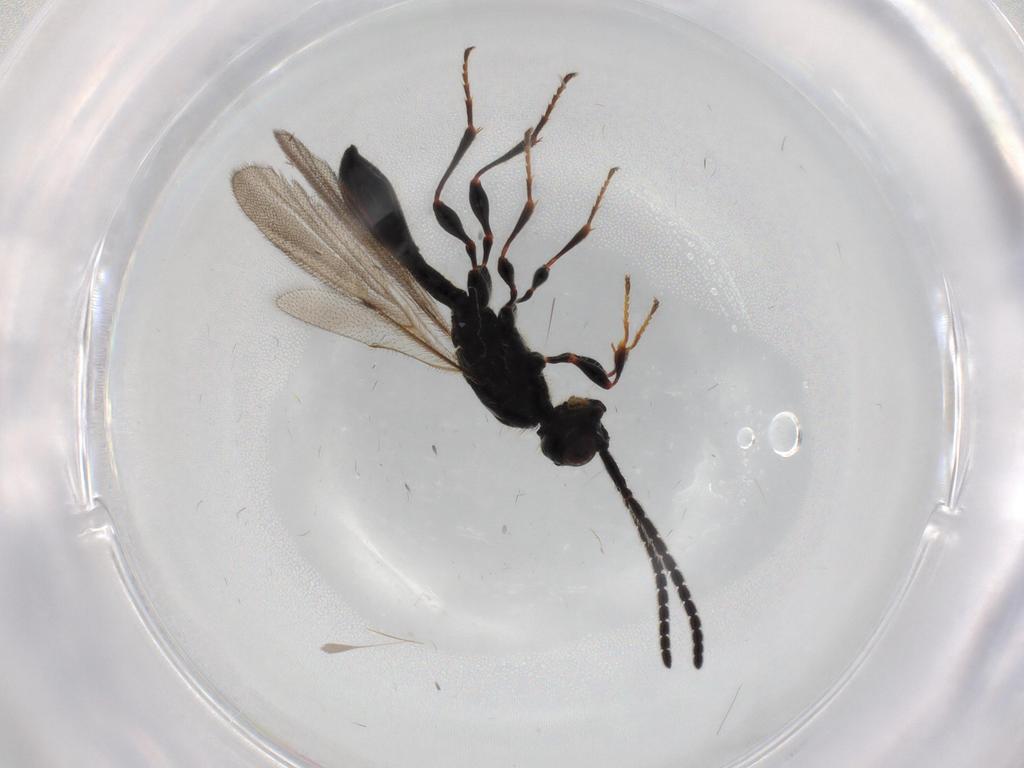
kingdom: Animalia
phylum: Arthropoda
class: Insecta
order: Hymenoptera
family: Diapriidae
